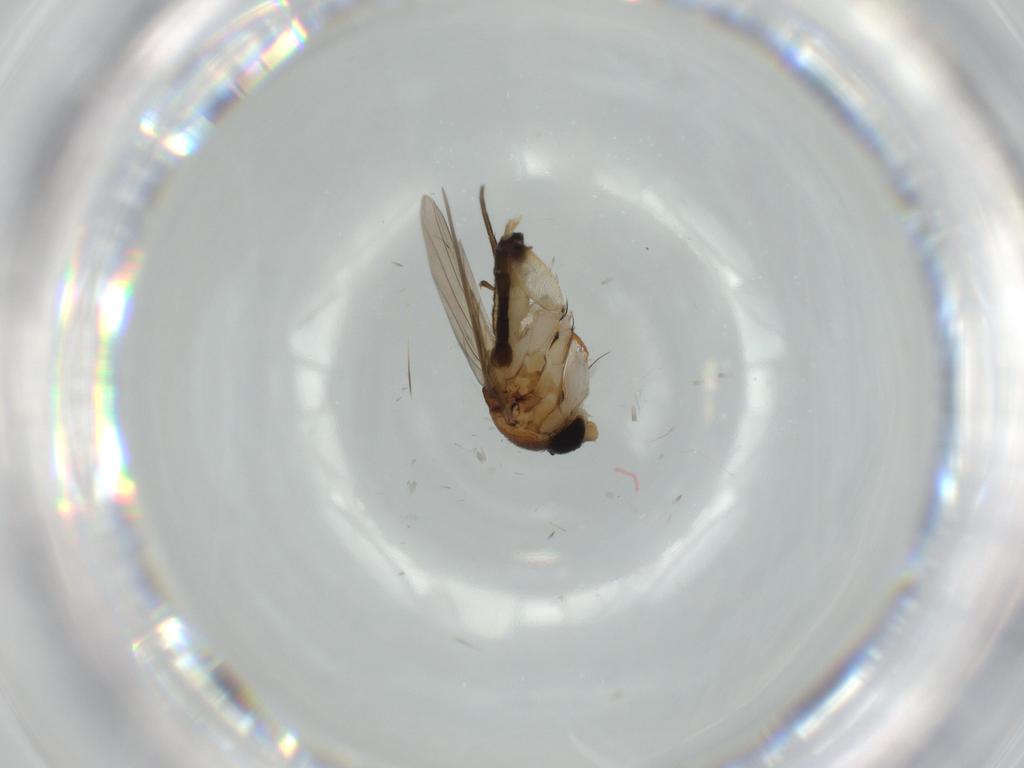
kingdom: Animalia
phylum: Arthropoda
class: Insecta
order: Diptera
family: Phoridae
